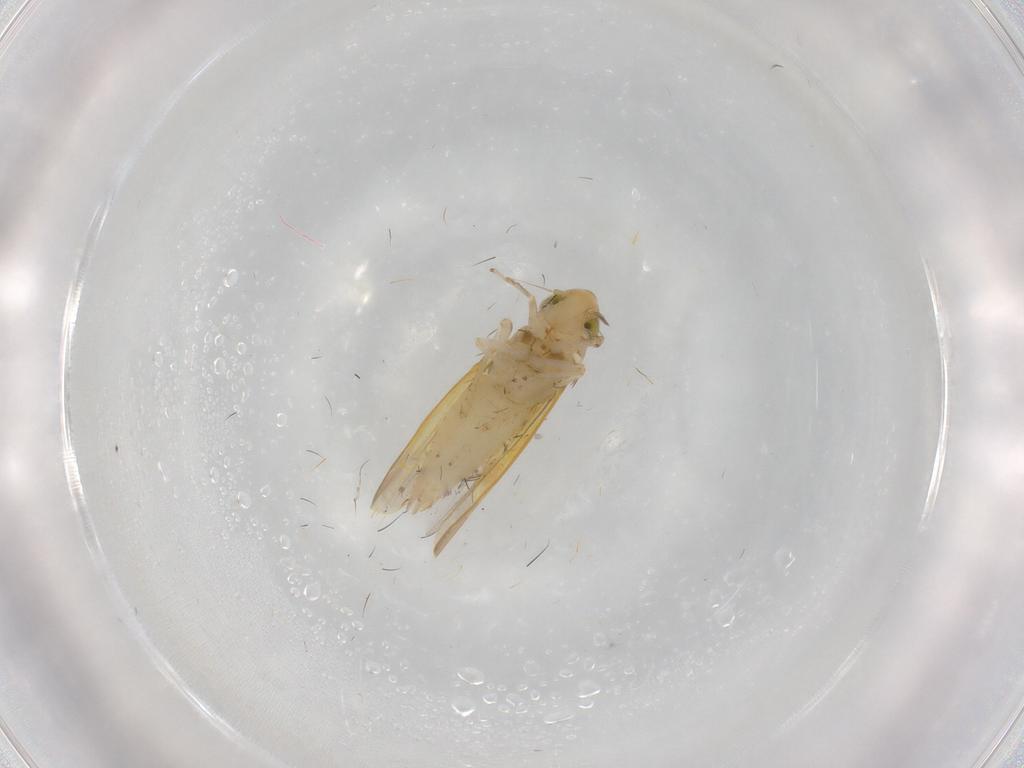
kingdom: Animalia
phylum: Arthropoda
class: Insecta
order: Hemiptera
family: Cicadellidae
